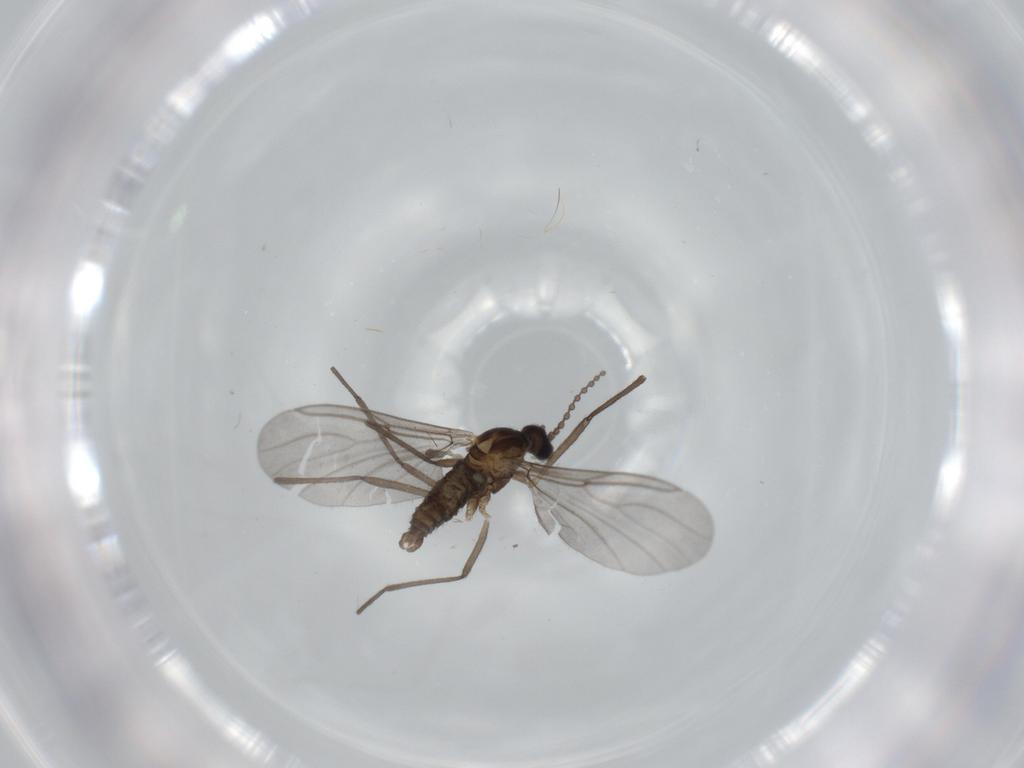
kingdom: Animalia
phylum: Arthropoda
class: Insecta
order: Diptera
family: Cecidomyiidae
